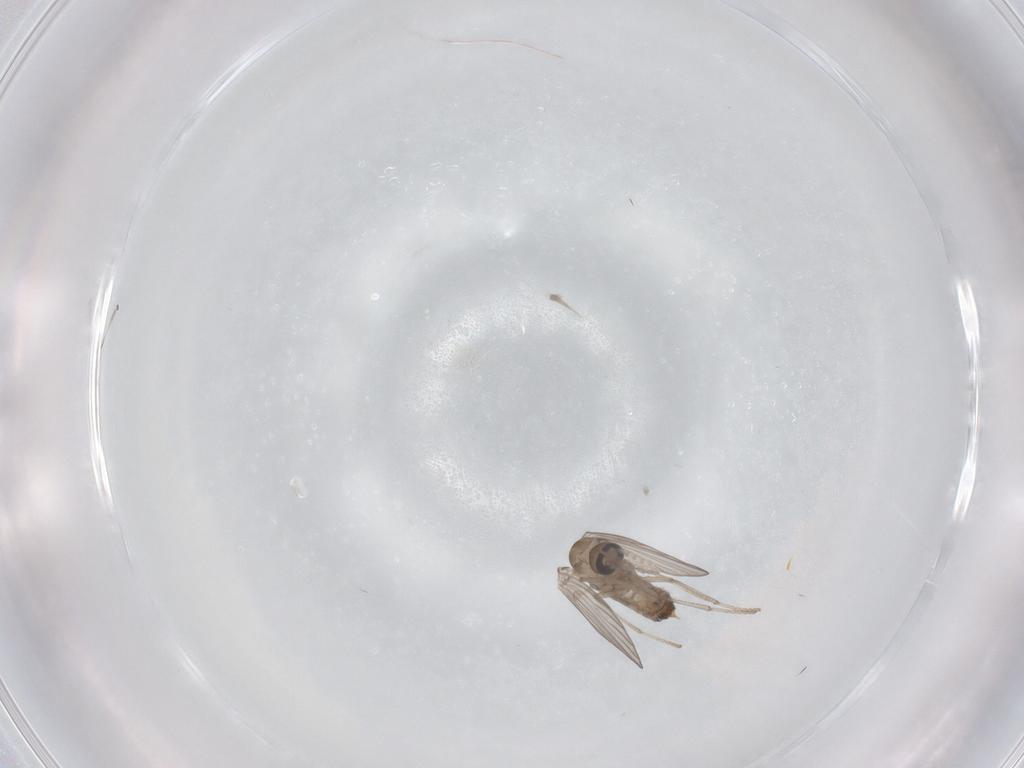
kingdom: Animalia
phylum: Arthropoda
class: Insecta
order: Diptera
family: Psychodidae
